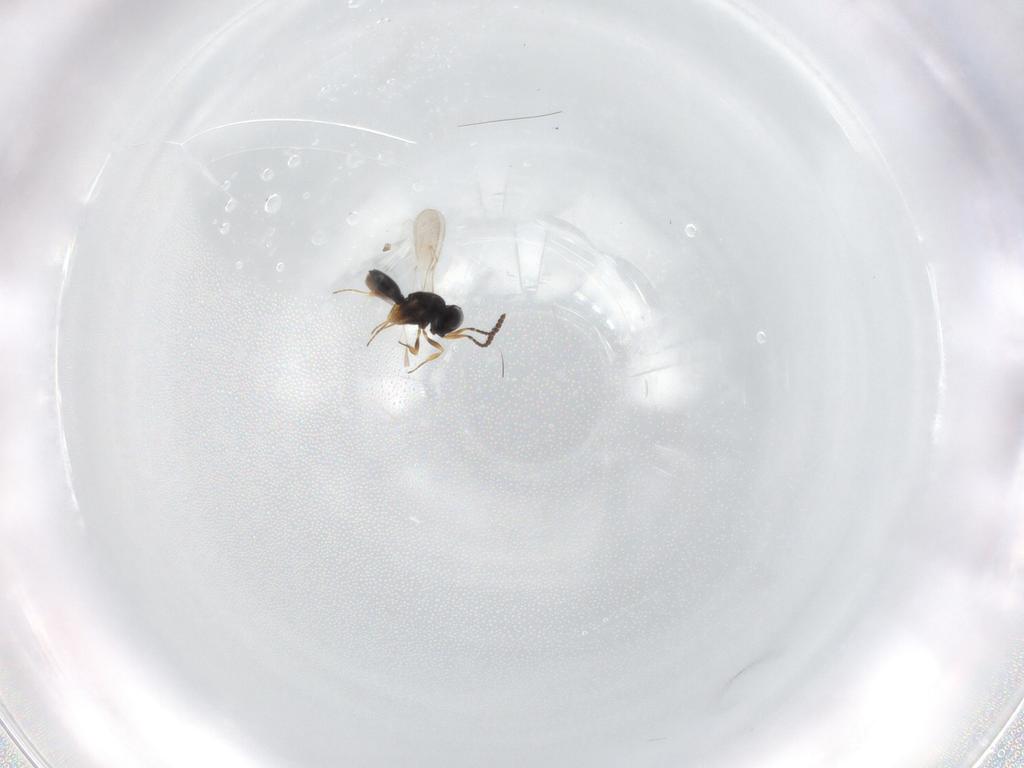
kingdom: Animalia
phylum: Arthropoda
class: Insecta
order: Hymenoptera
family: Scelionidae
